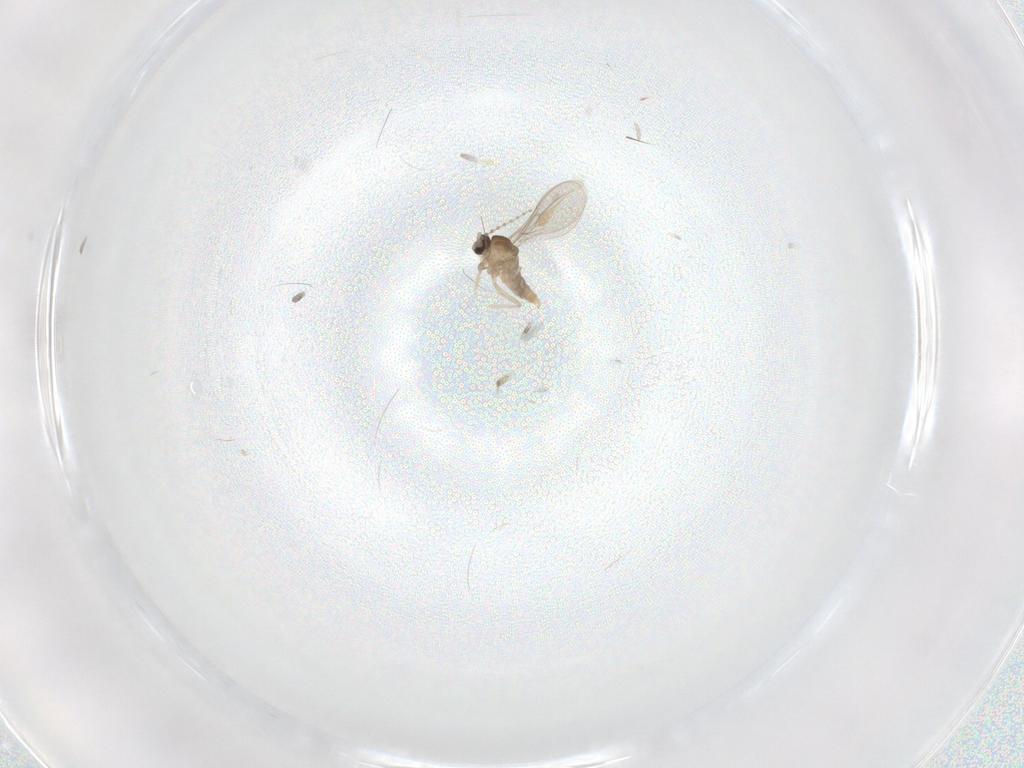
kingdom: Animalia
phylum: Arthropoda
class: Insecta
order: Diptera
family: Cecidomyiidae
